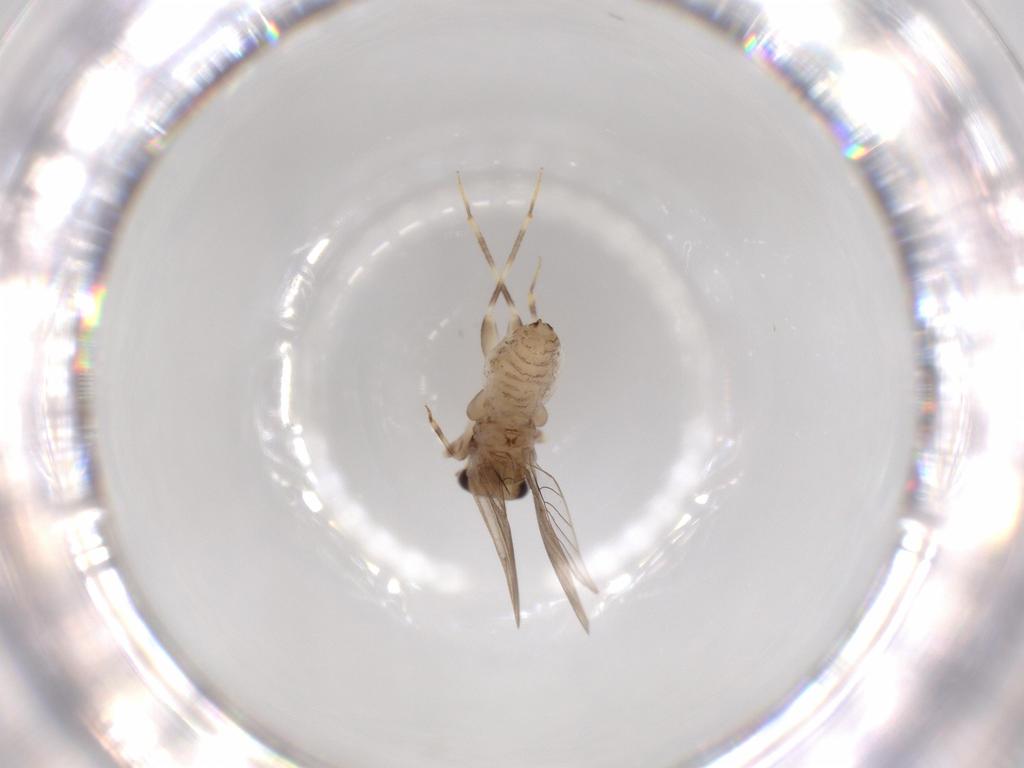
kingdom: Animalia
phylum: Arthropoda
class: Insecta
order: Psocodea
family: Lepidopsocidae
